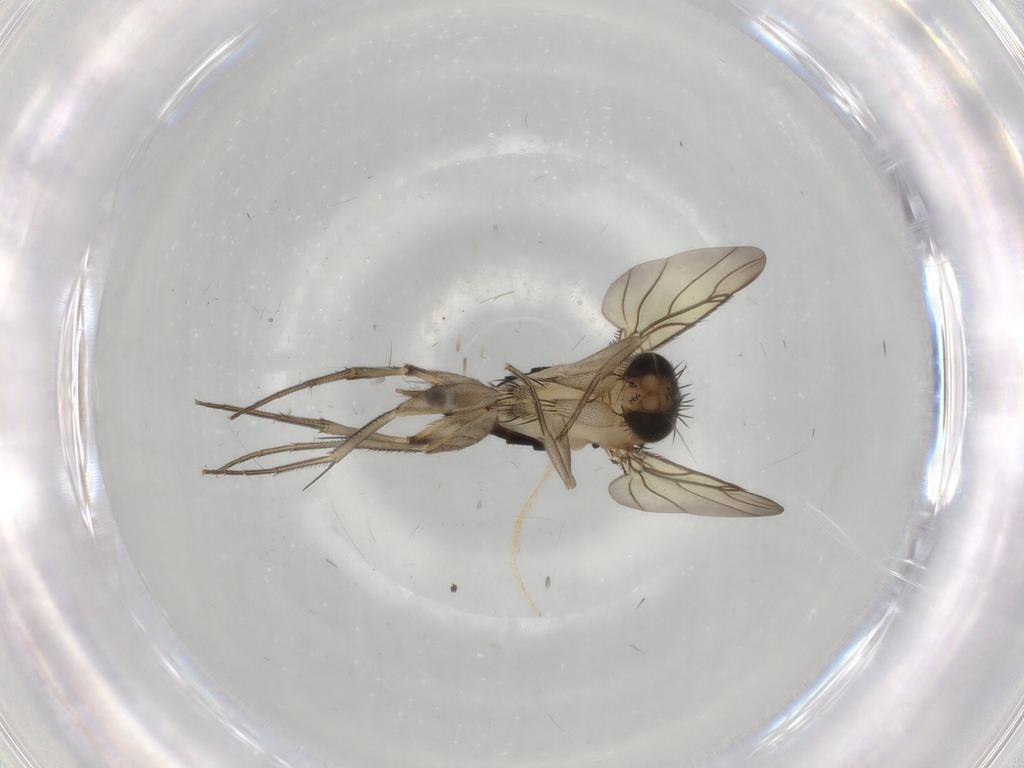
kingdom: Animalia
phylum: Arthropoda
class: Insecta
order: Diptera
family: Phoridae
